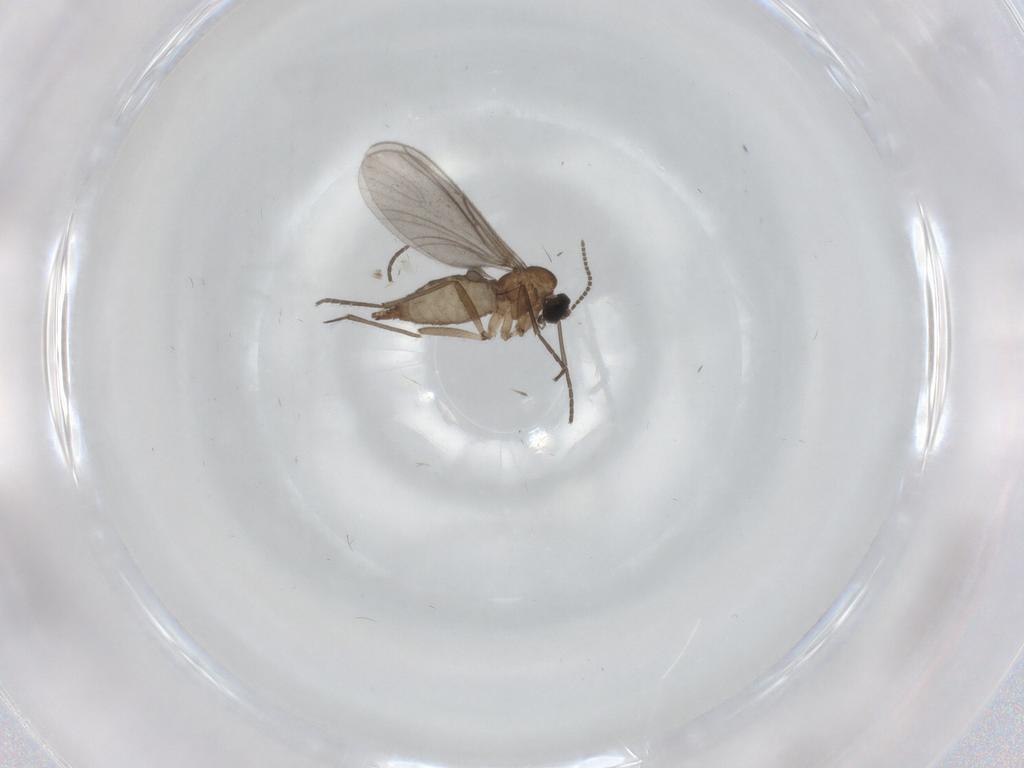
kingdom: Animalia
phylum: Arthropoda
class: Insecta
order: Diptera
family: Sciaridae
